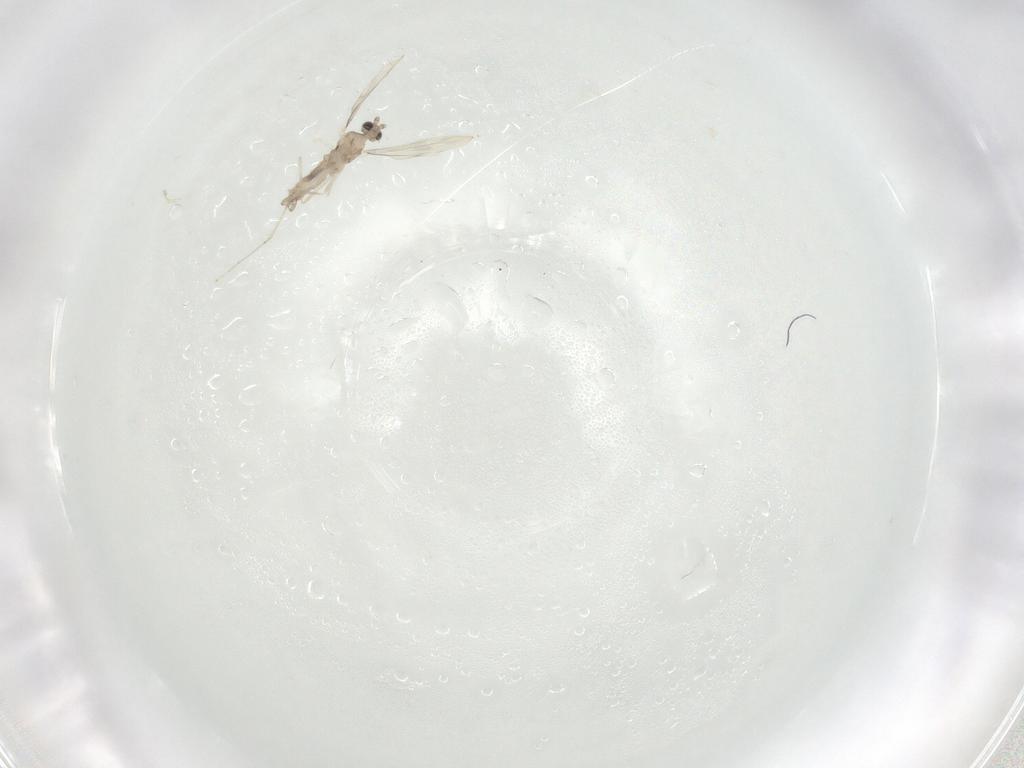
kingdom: Animalia
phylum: Arthropoda
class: Insecta
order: Diptera
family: Cecidomyiidae
